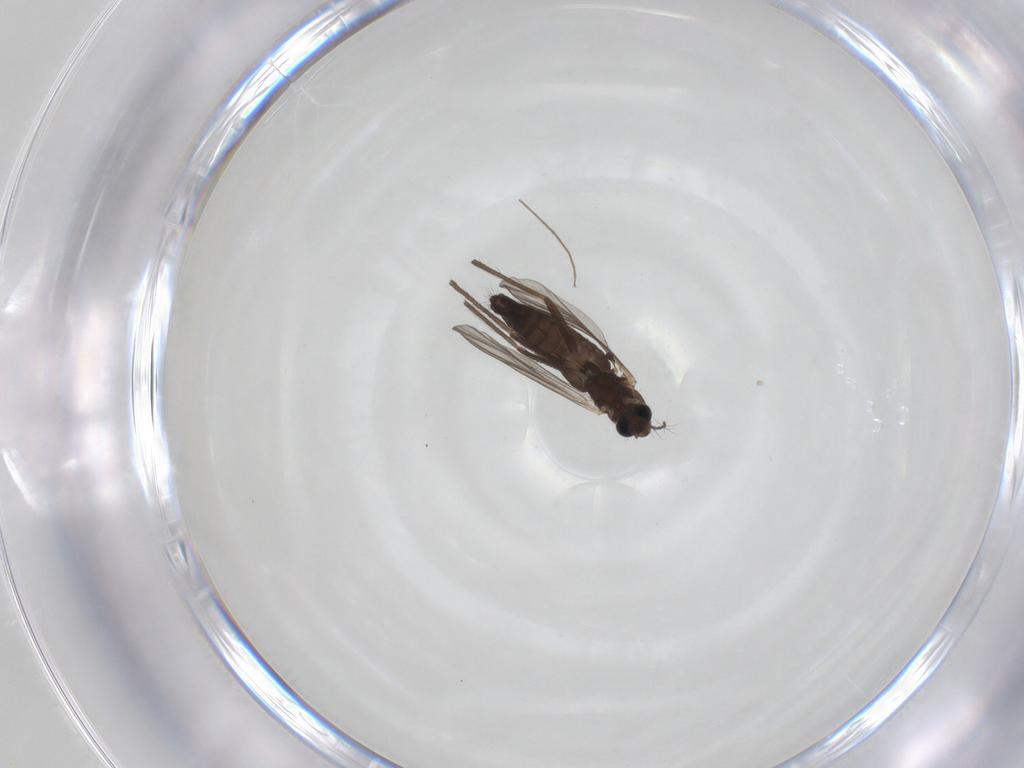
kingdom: Animalia
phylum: Arthropoda
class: Insecta
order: Diptera
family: Chironomidae
